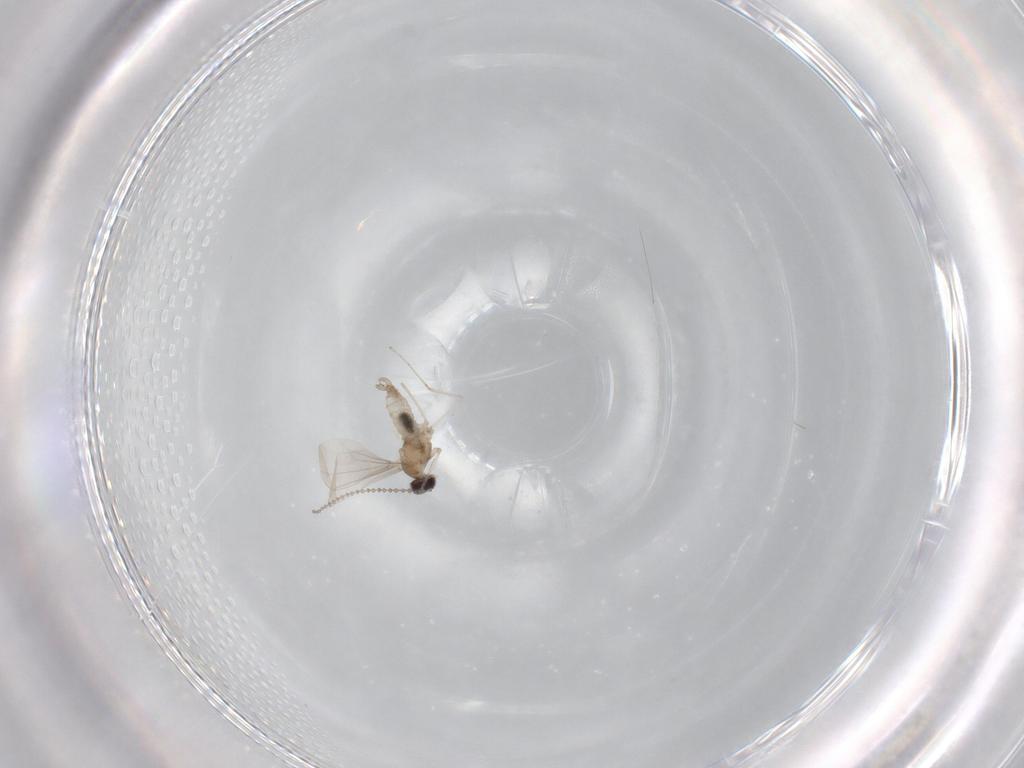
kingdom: Animalia
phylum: Arthropoda
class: Insecta
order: Diptera
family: Cecidomyiidae
